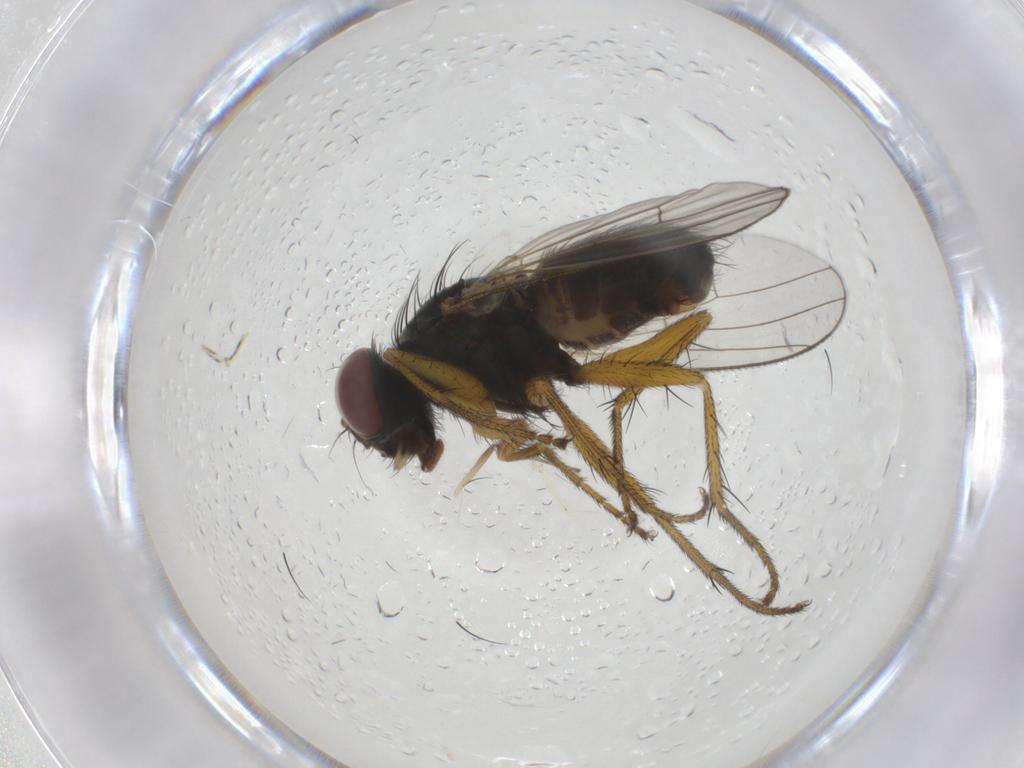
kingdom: Animalia
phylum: Arthropoda
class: Insecta
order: Diptera
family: Muscidae
